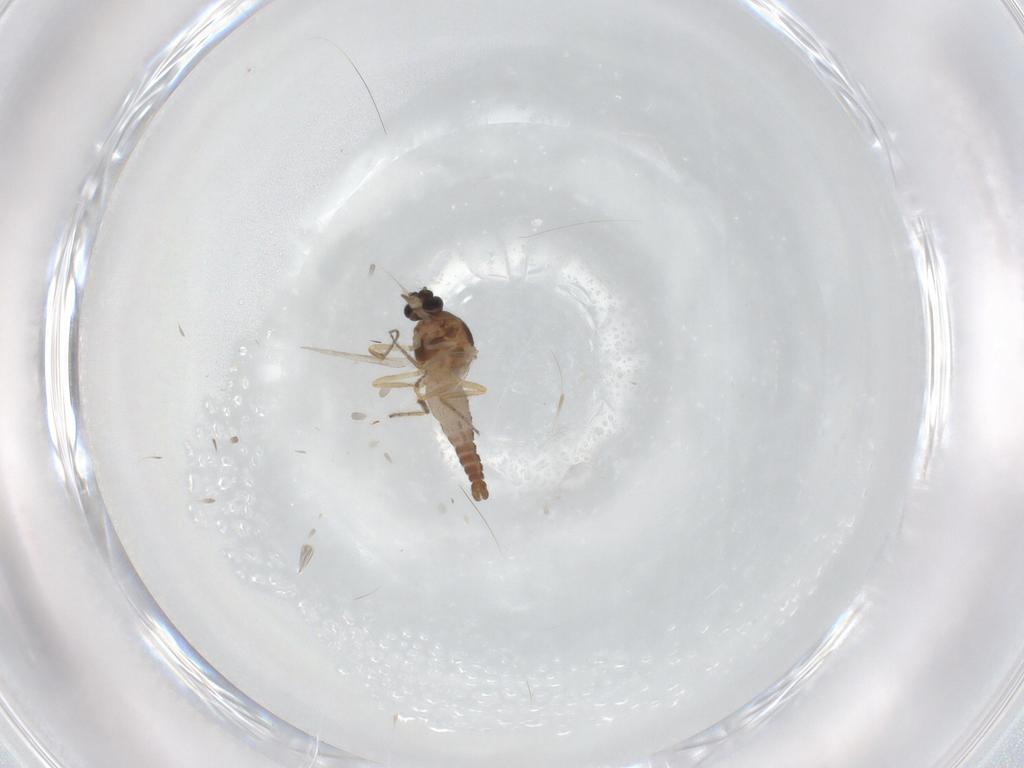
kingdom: Animalia
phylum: Arthropoda
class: Insecta
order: Diptera
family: Ceratopogonidae
